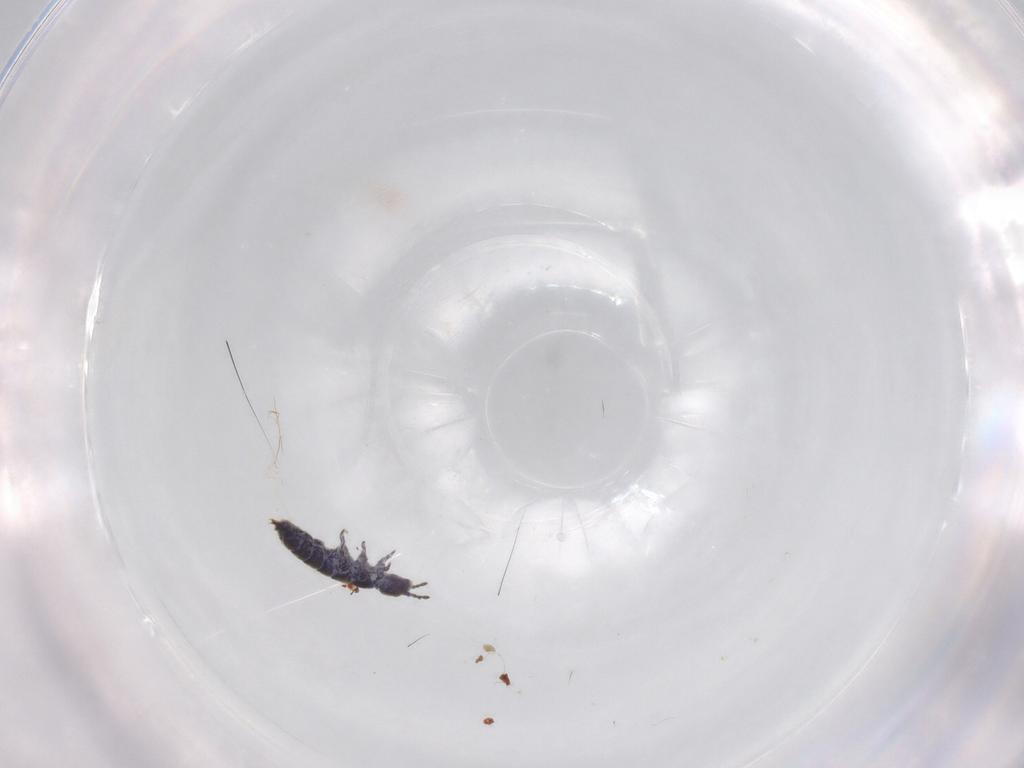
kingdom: Animalia
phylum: Arthropoda
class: Collembola
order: Entomobryomorpha
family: Isotomidae
